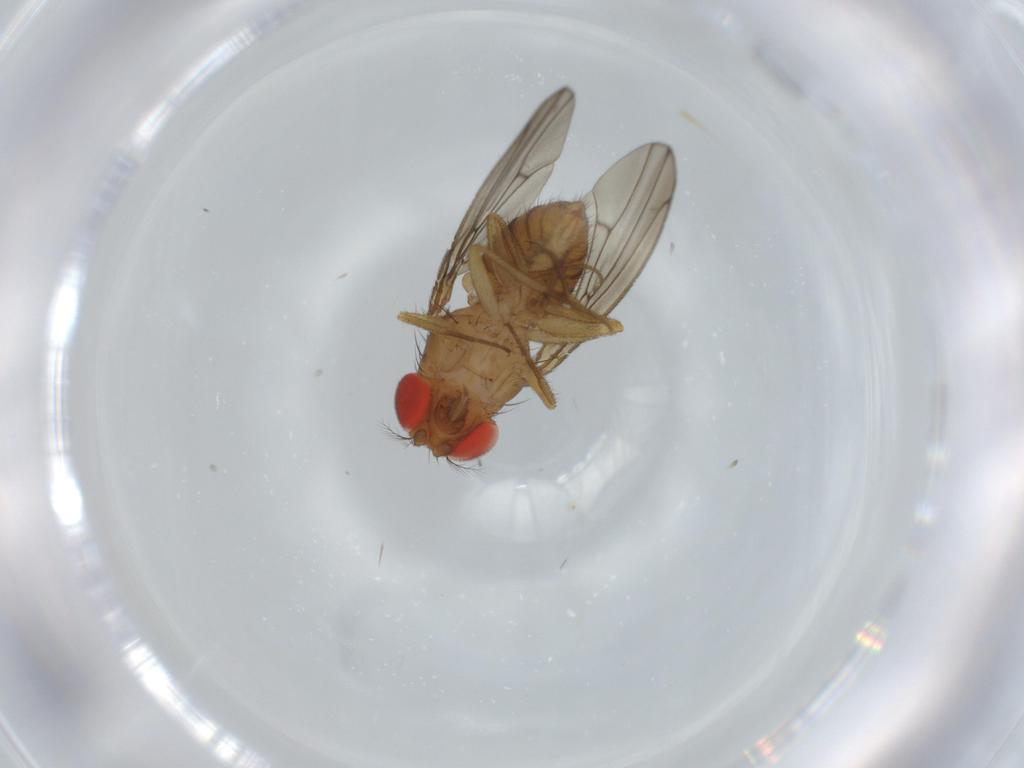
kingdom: Animalia
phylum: Arthropoda
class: Insecta
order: Diptera
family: Drosophilidae
